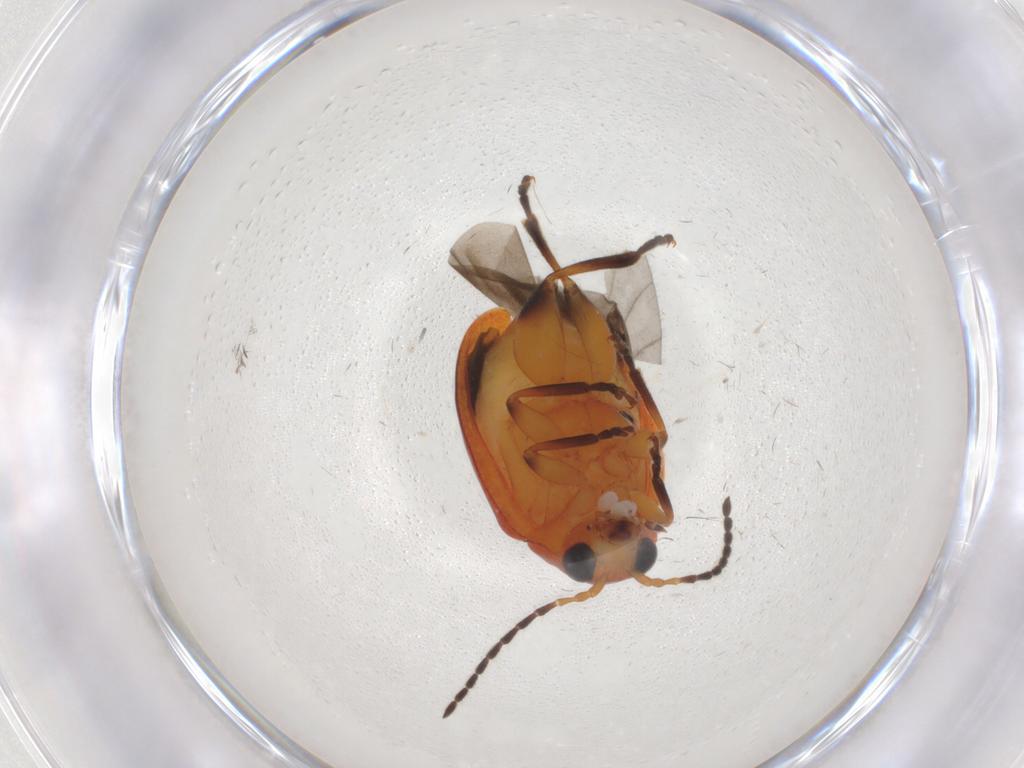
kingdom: Animalia
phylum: Arthropoda
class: Insecta
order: Coleoptera
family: Chrysomelidae
